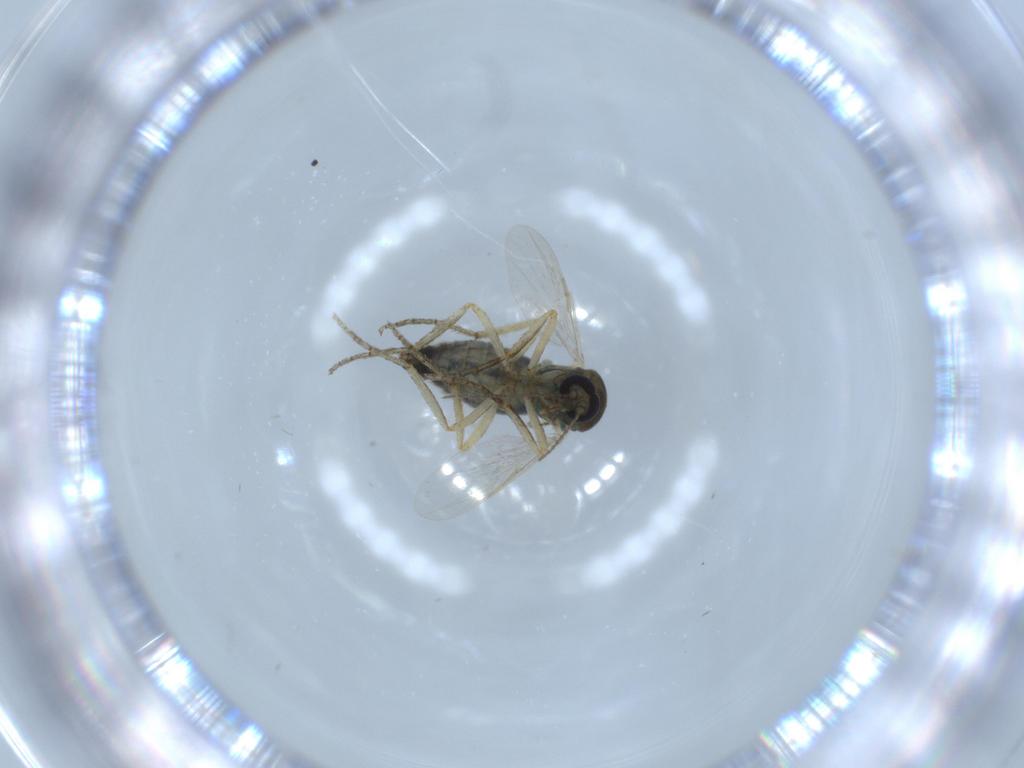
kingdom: Animalia
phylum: Arthropoda
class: Insecta
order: Diptera
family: Ceratopogonidae
